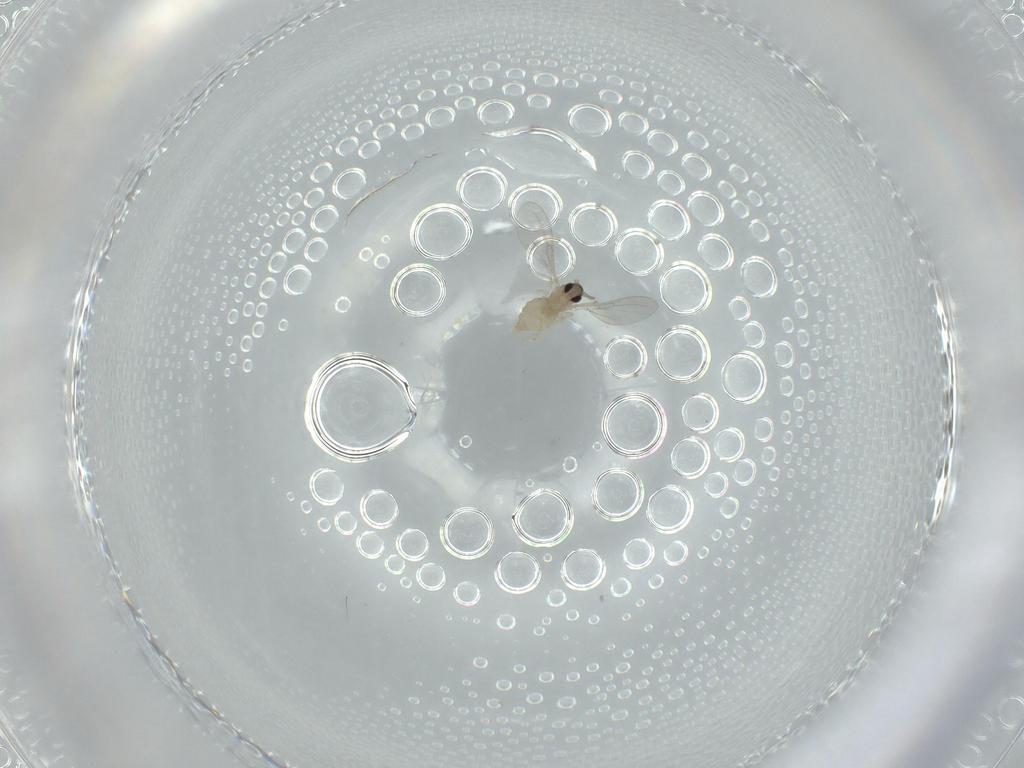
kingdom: Animalia
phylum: Arthropoda
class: Insecta
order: Diptera
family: Cecidomyiidae
